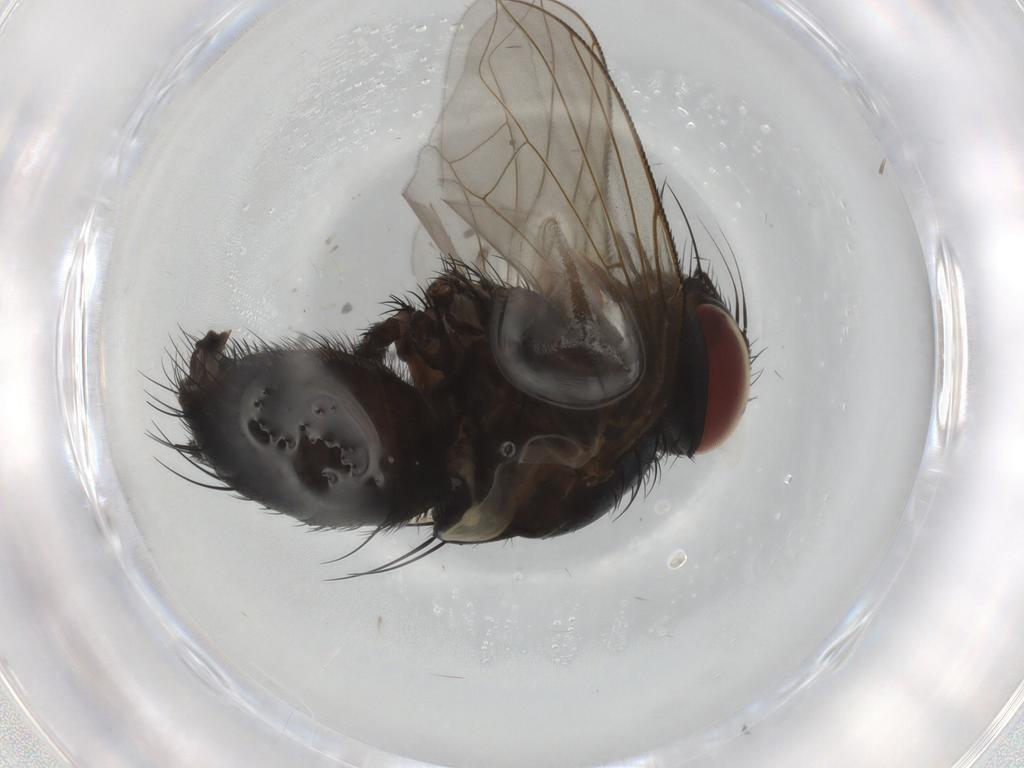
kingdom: Animalia
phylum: Arthropoda
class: Insecta
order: Diptera
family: Anthomyiidae
